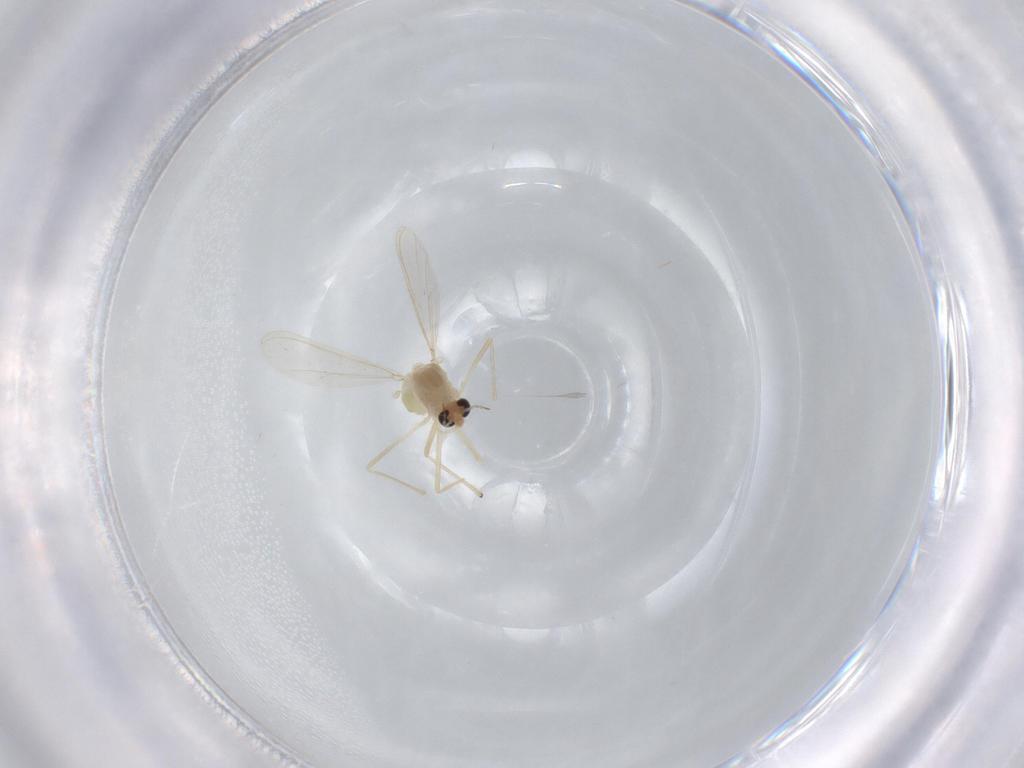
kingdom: Animalia
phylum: Arthropoda
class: Insecta
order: Diptera
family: Chironomidae
